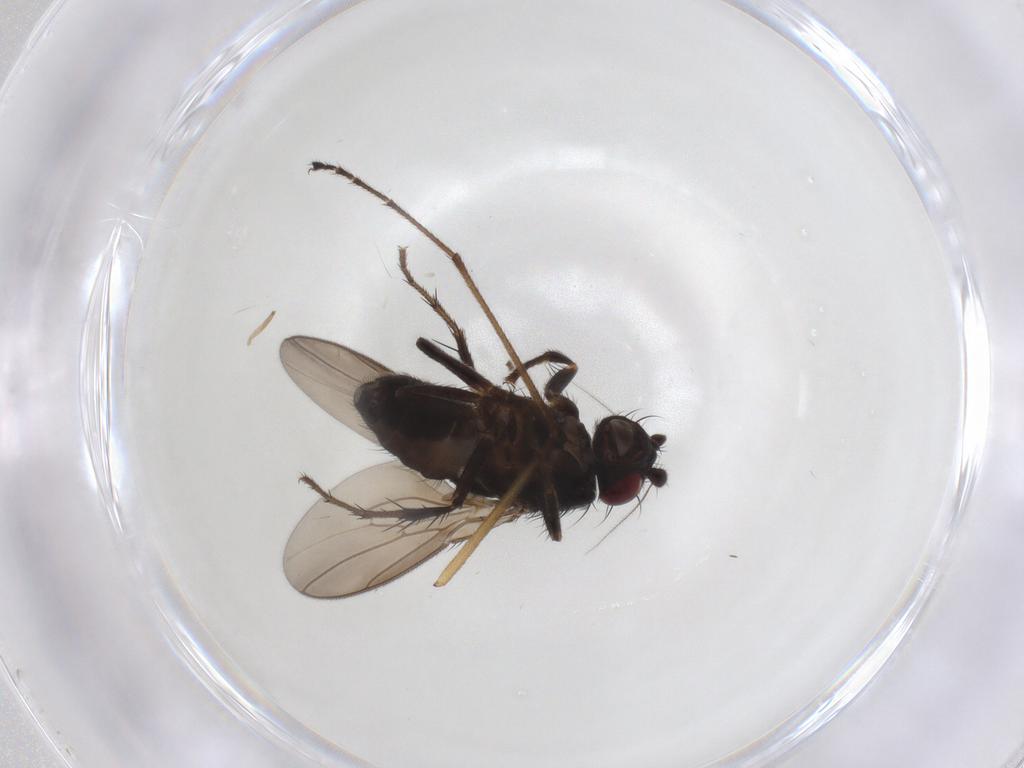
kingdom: Animalia
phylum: Arthropoda
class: Insecta
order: Diptera
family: Sphaeroceridae
